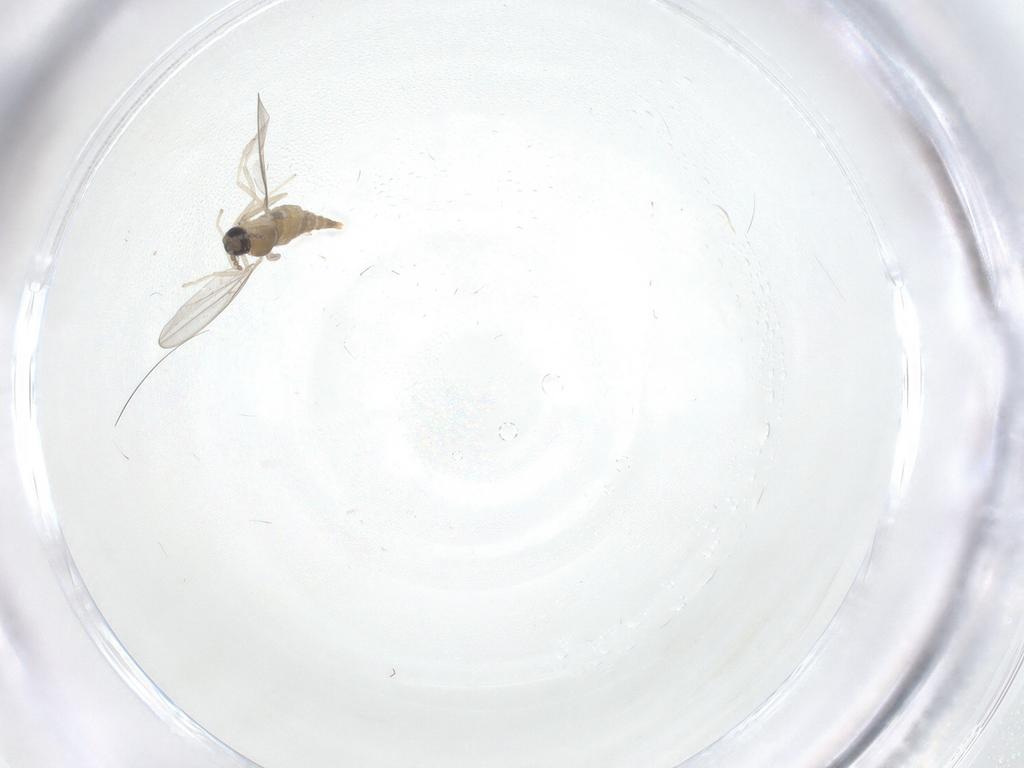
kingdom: Animalia
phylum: Arthropoda
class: Insecta
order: Diptera
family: Cecidomyiidae
